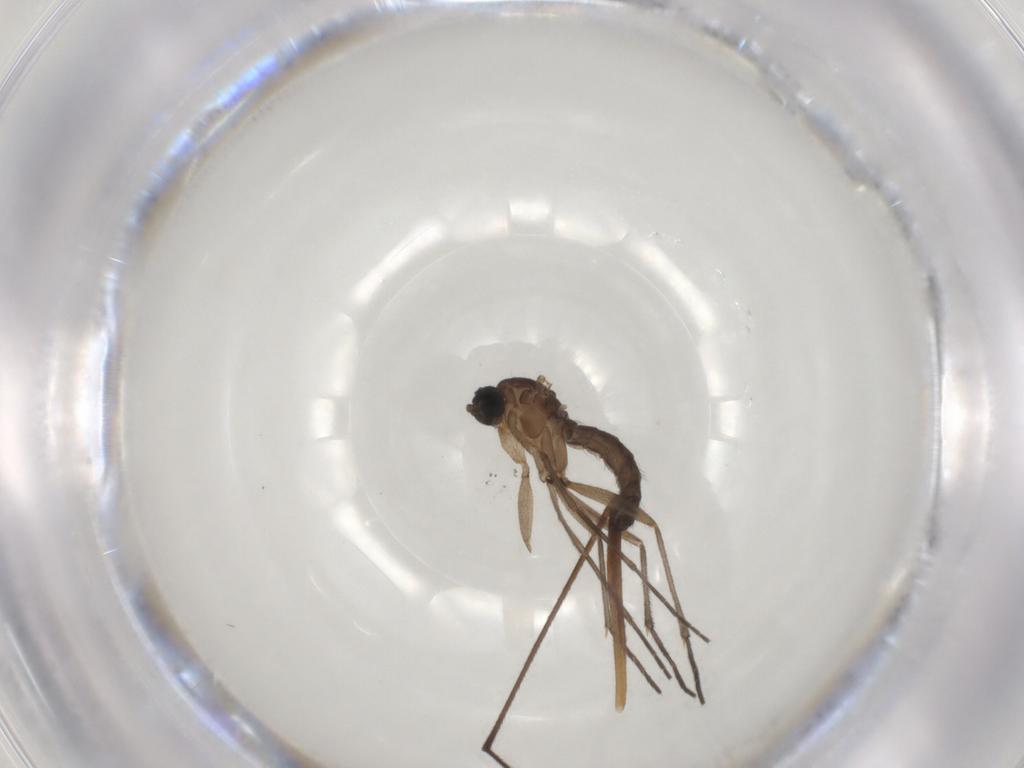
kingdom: Animalia
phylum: Arthropoda
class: Insecta
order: Diptera
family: Limoniidae
